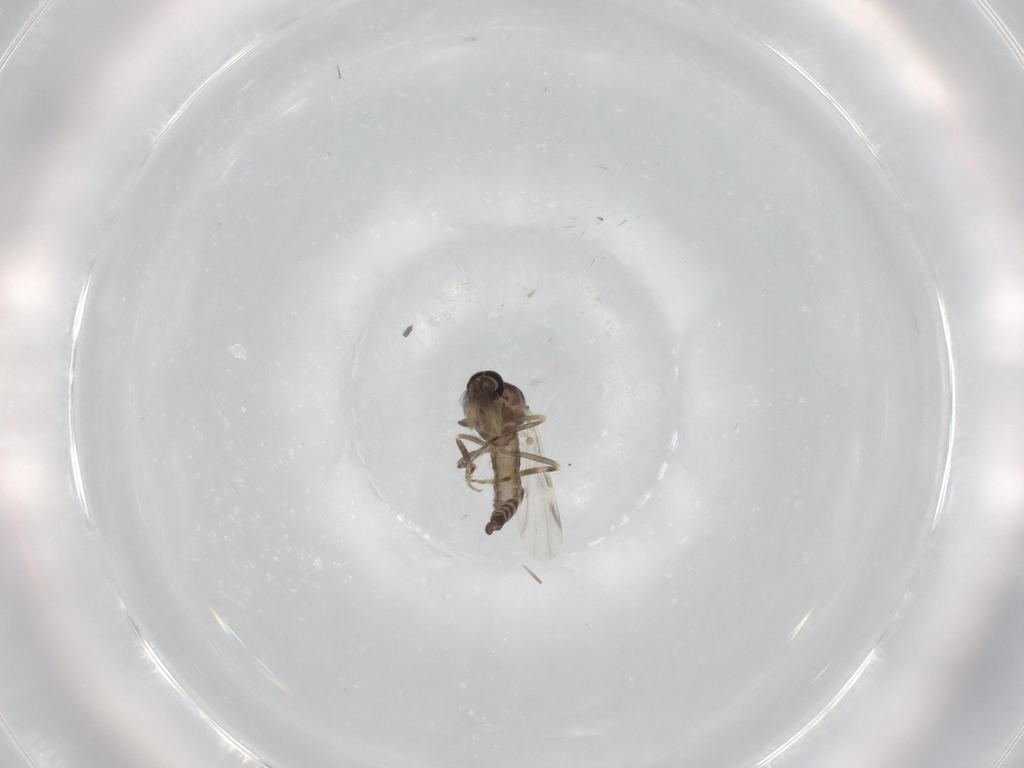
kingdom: Animalia
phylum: Arthropoda
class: Insecta
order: Diptera
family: Ceratopogonidae
